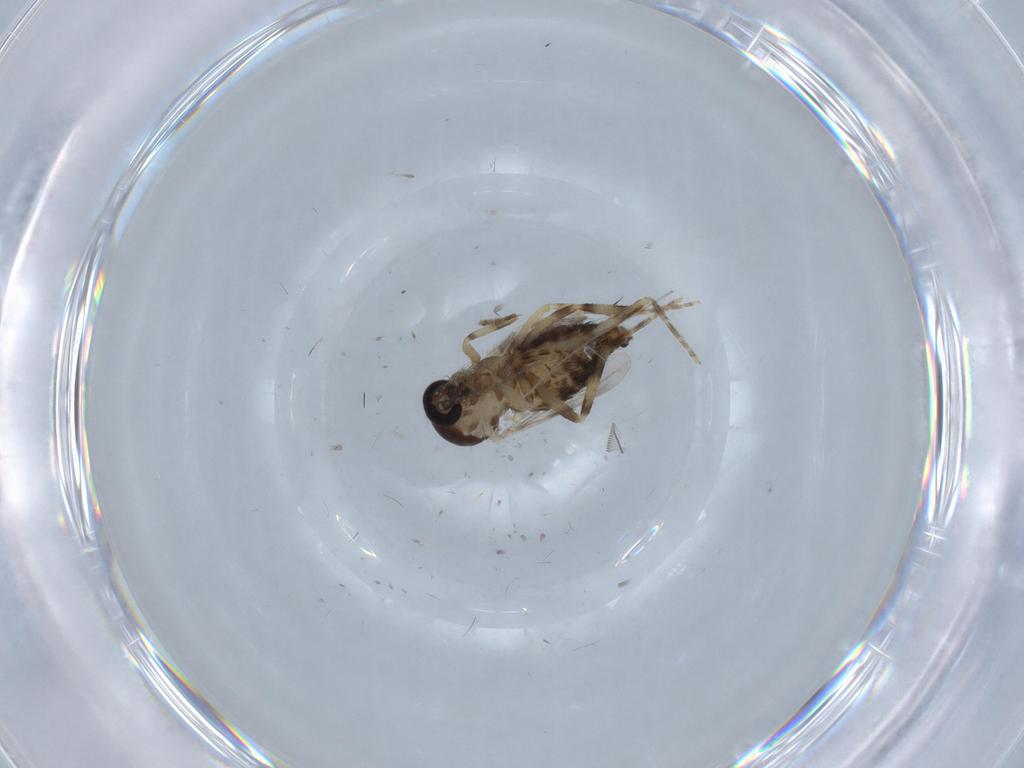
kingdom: Animalia
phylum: Arthropoda
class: Insecta
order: Diptera
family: Ceratopogonidae
